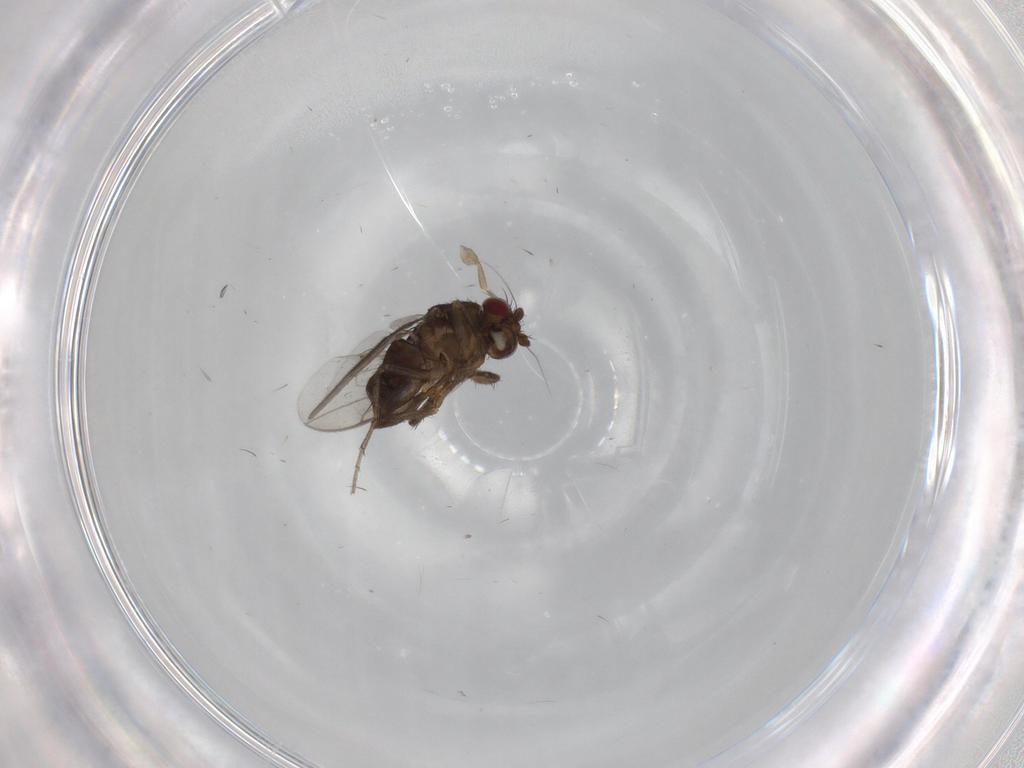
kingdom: Animalia
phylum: Arthropoda
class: Insecta
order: Diptera
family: Sphaeroceridae
